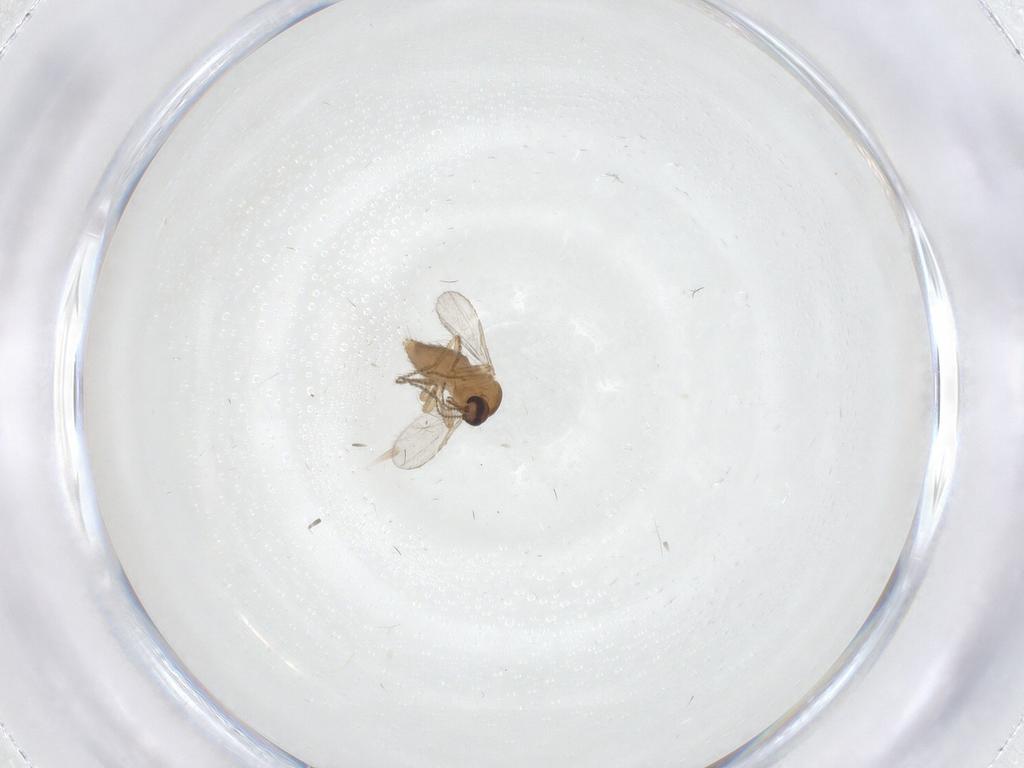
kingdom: Animalia
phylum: Arthropoda
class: Insecta
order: Diptera
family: Ceratopogonidae
